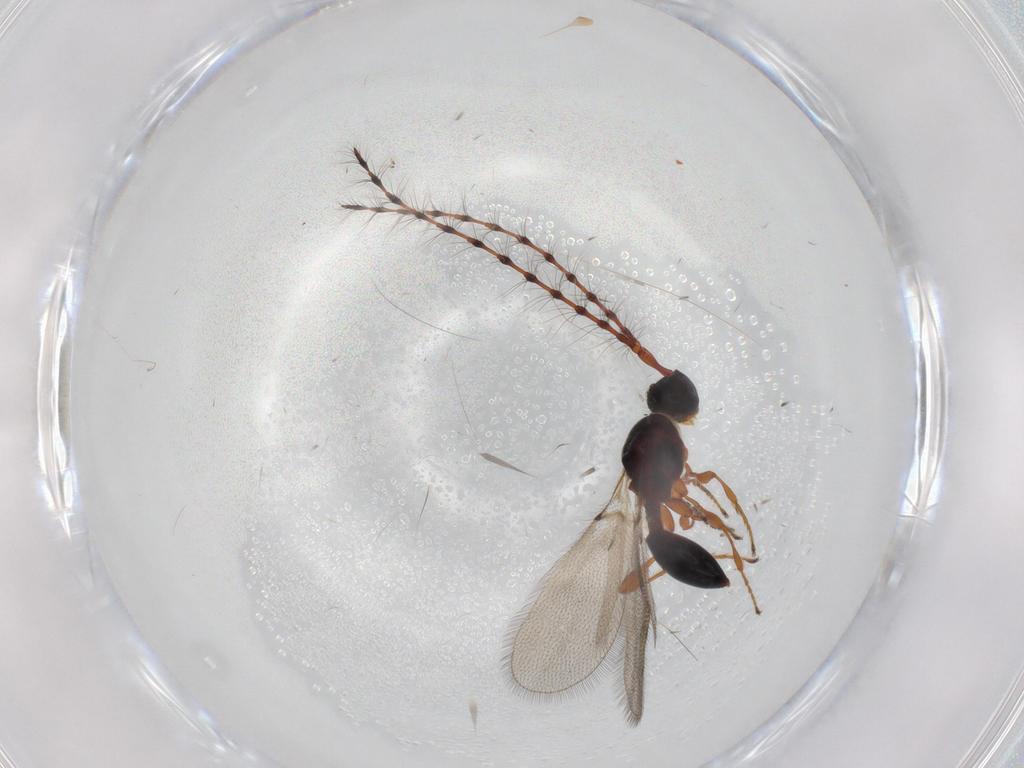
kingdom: Animalia
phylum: Arthropoda
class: Insecta
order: Hymenoptera
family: Diapriidae
